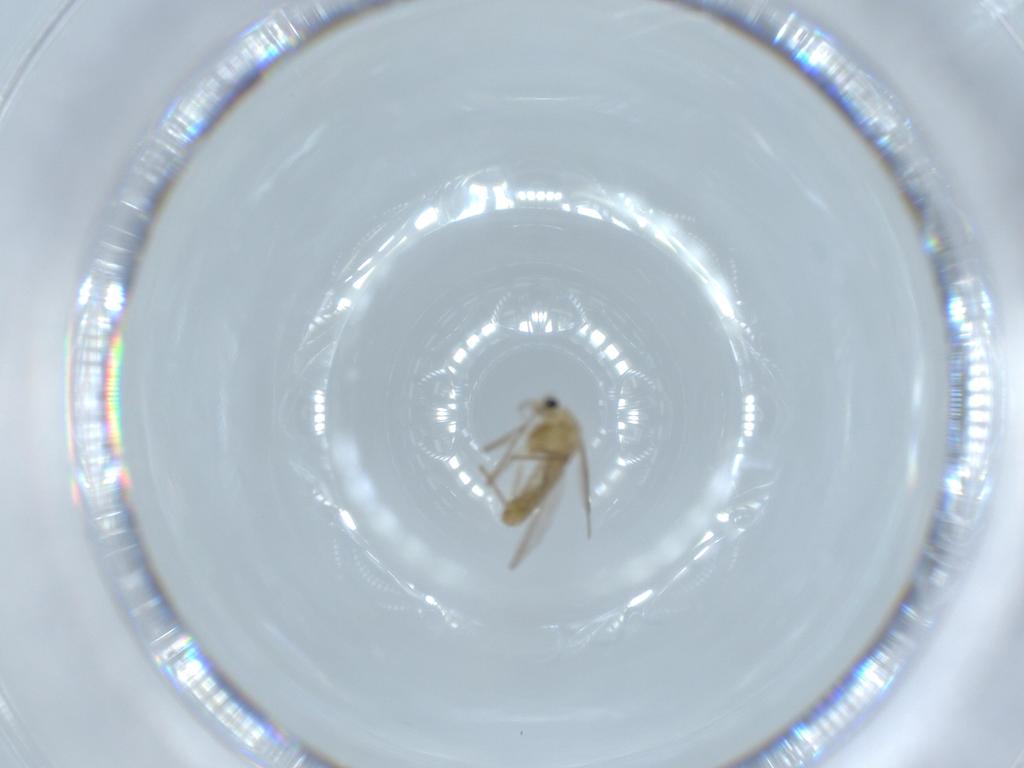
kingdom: Animalia
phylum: Arthropoda
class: Insecta
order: Diptera
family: Chironomidae
